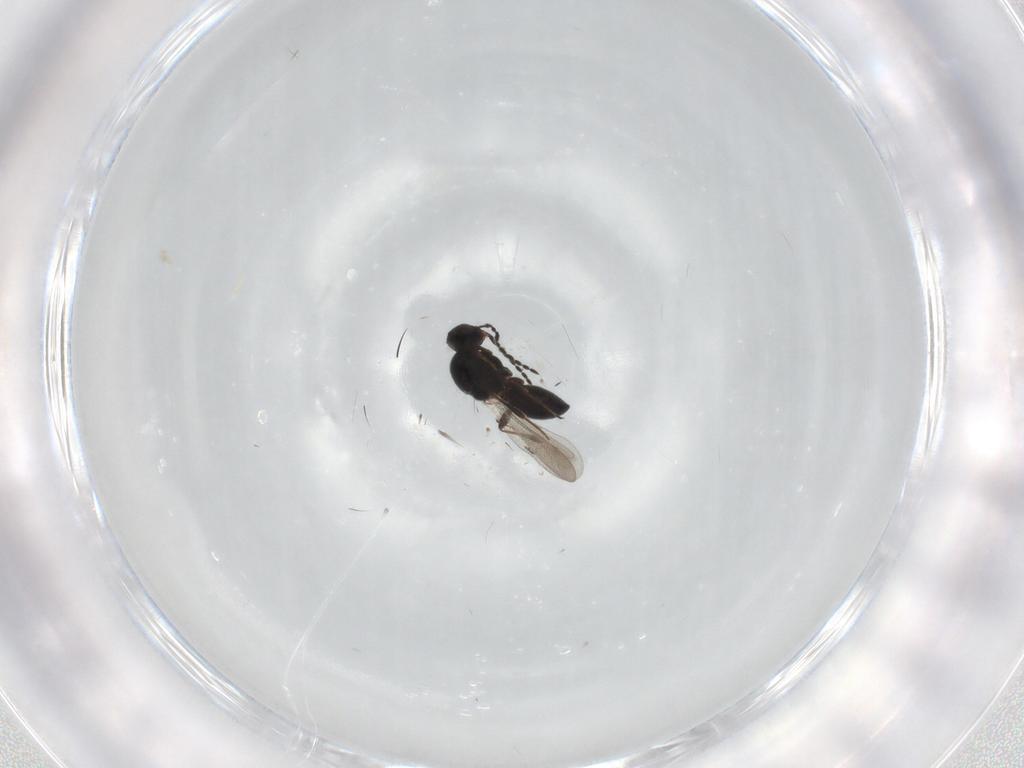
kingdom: Animalia
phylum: Arthropoda
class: Insecta
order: Hymenoptera
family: Platygastridae
